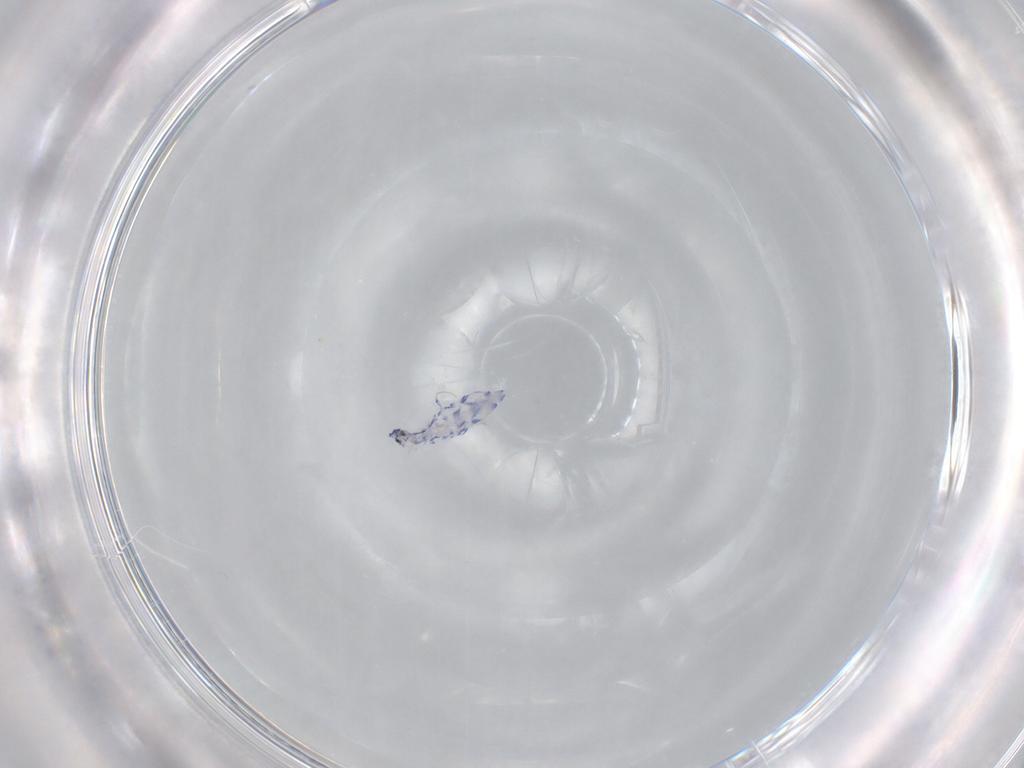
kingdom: Animalia
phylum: Arthropoda
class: Collembola
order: Entomobryomorpha
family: Entomobryidae
